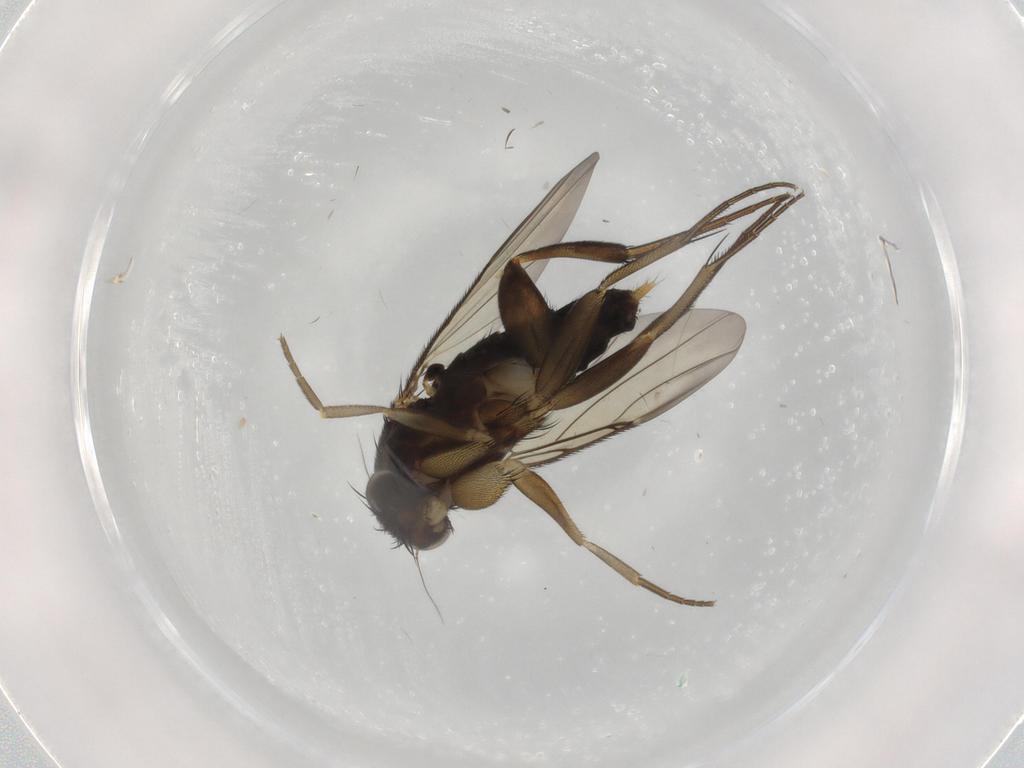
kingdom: Animalia
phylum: Arthropoda
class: Insecta
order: Diptera
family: Phoridae
